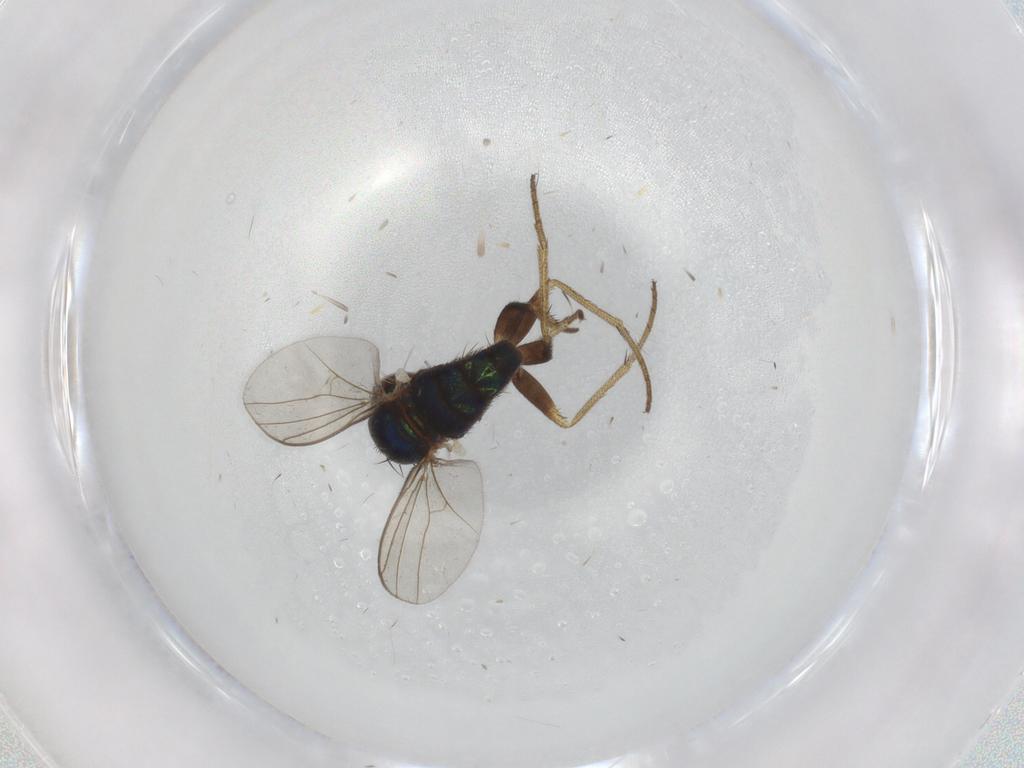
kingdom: Animalia
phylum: Arthropoda
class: Insecta
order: Diptera
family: Dolichopodidae
